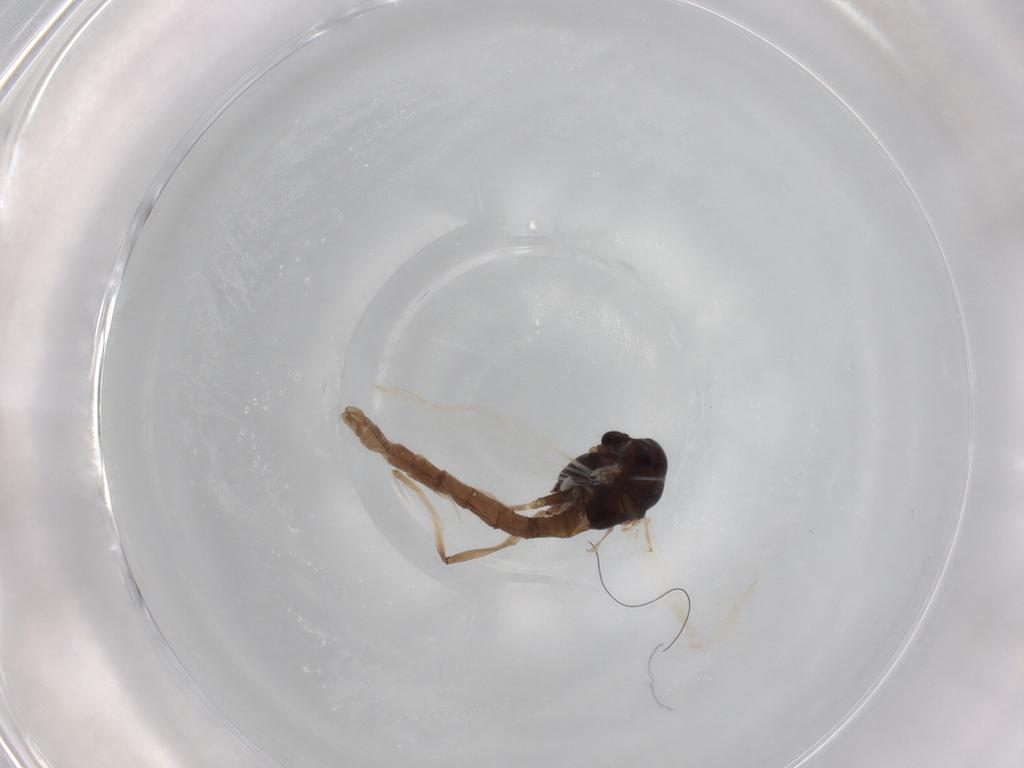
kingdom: Animalia
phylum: Arthropoda
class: Insecta
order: Diptera
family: Chironomidae
